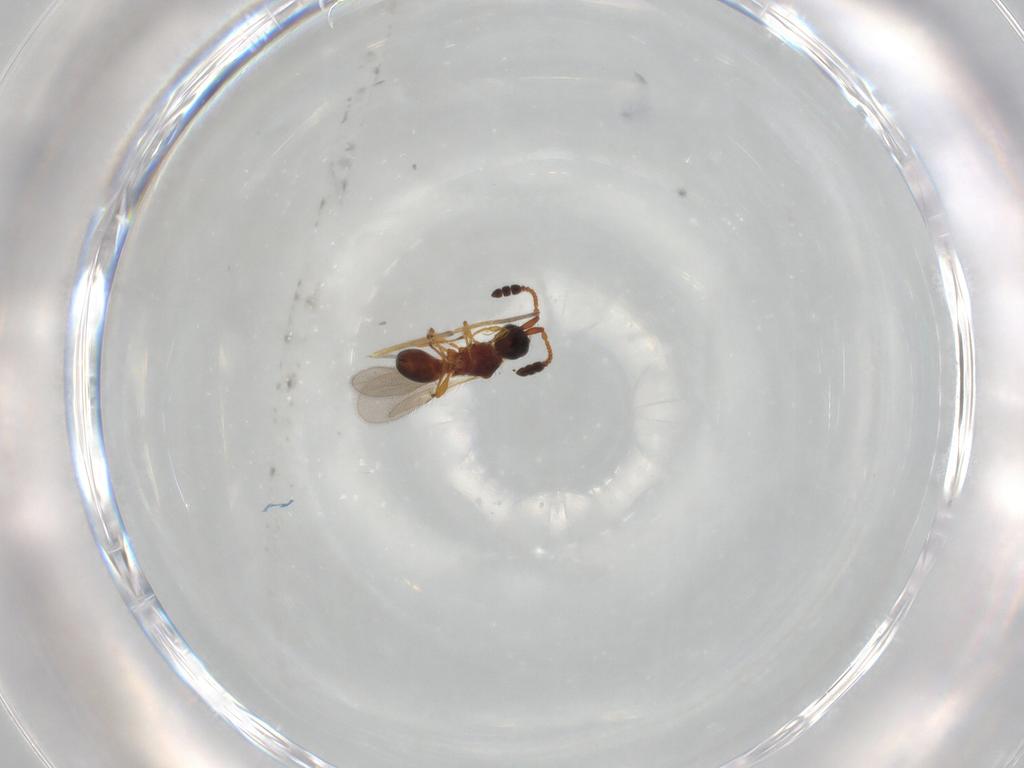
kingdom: Animalia
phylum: Arthropoda
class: Insecta
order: Hymenoptera
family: Diapriidae
